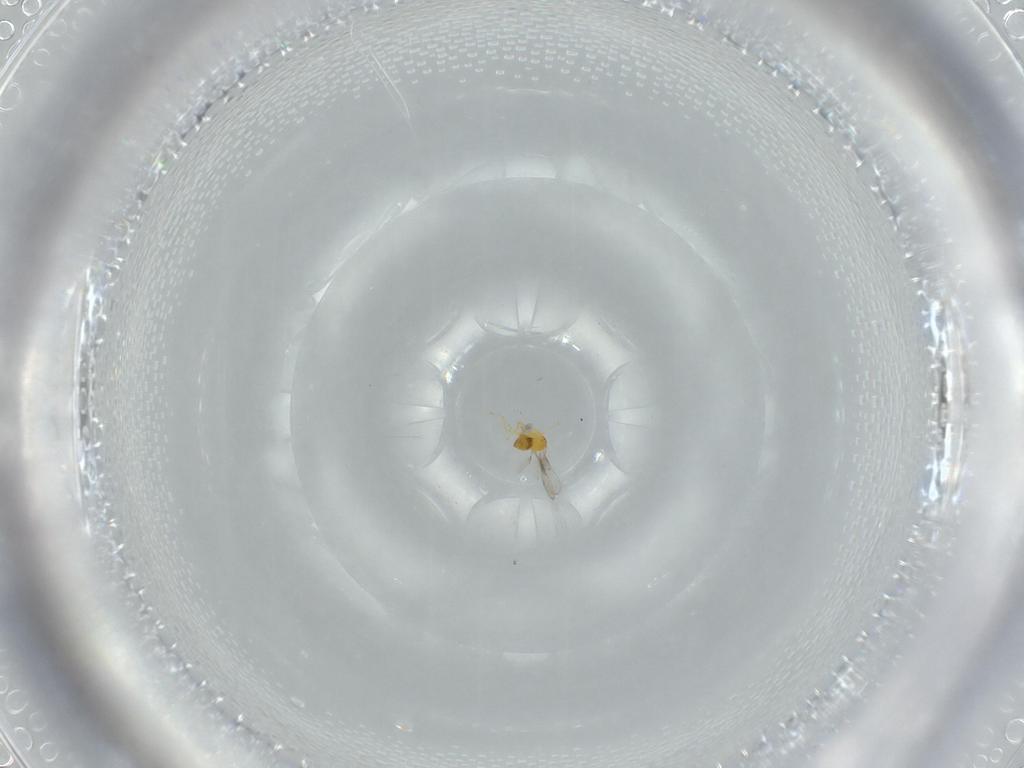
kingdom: Animalia
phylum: Arthropoda
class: Insecta
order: Hymenoptera
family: Trichogrammatidae
